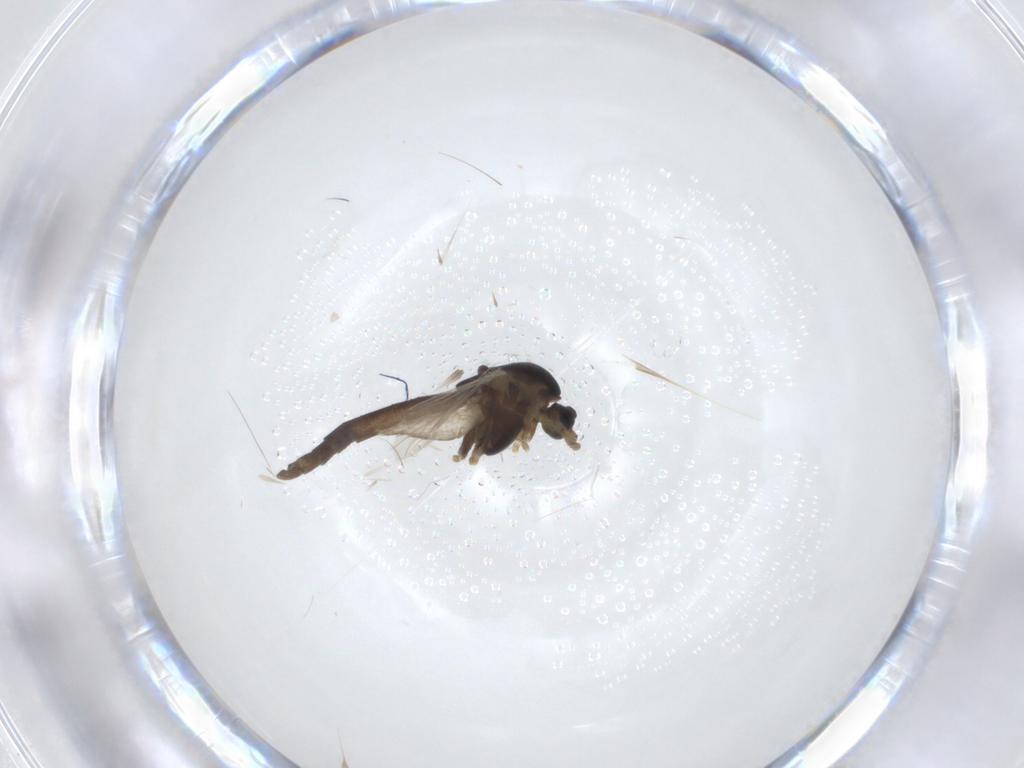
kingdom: Animalia
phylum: Arthropoda
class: Insecta
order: Diptera
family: Chironomidae
